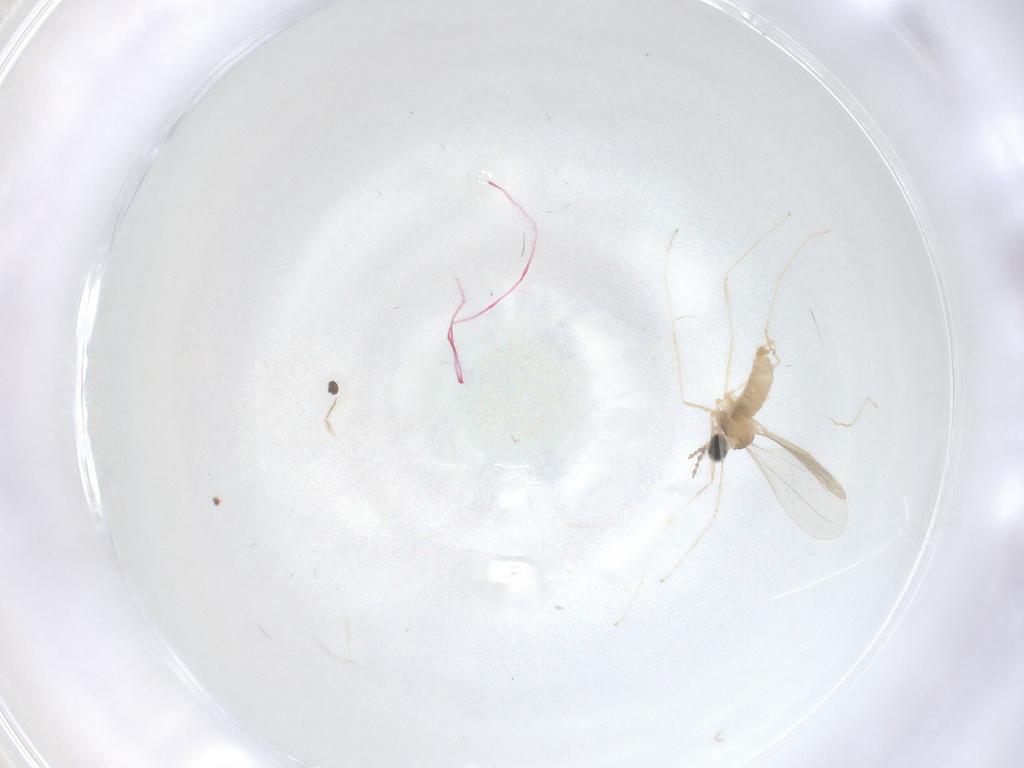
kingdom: Animalia
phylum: Arthropoda
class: Insecta
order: Diptera
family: Cecidomyiidae
